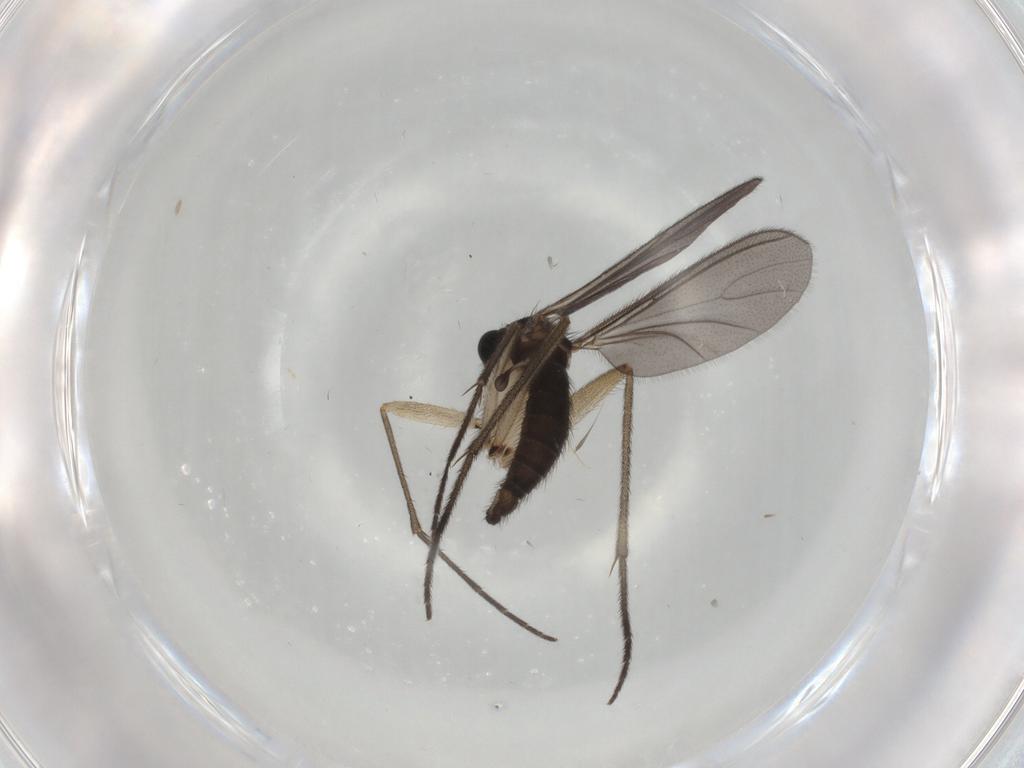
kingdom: Animalia
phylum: Arthropoda
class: Insecta
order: Diptera
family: Sciaridae
